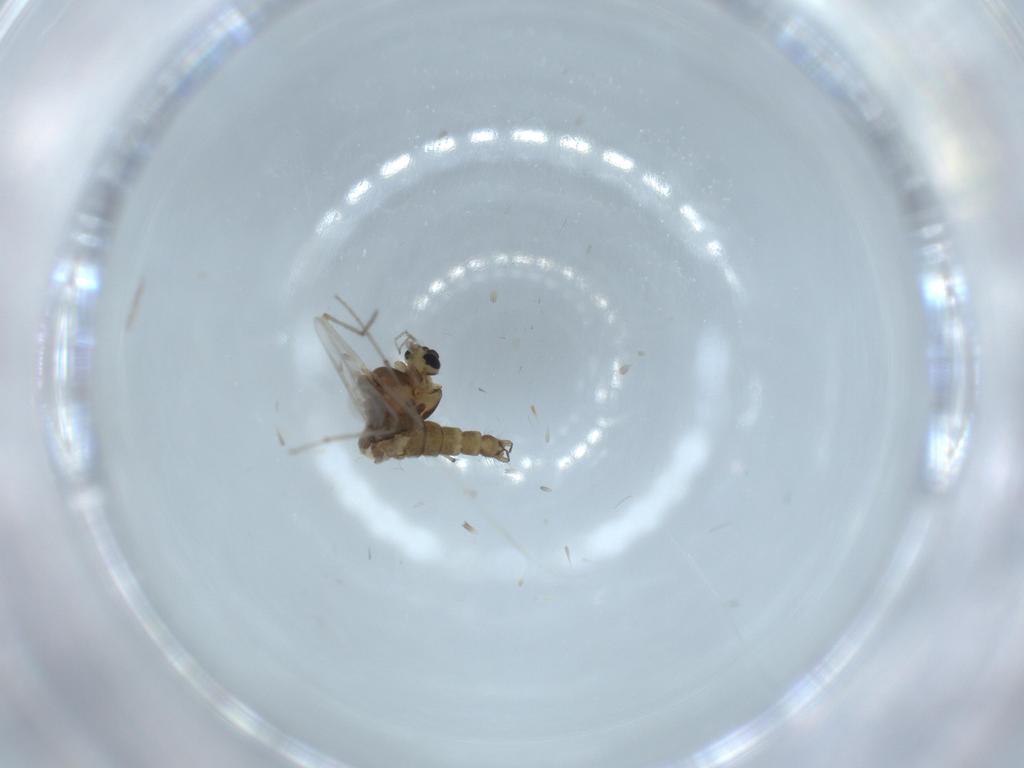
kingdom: Animalia
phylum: Arthropoda
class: Insecta
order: Diptera
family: Chironomidae
